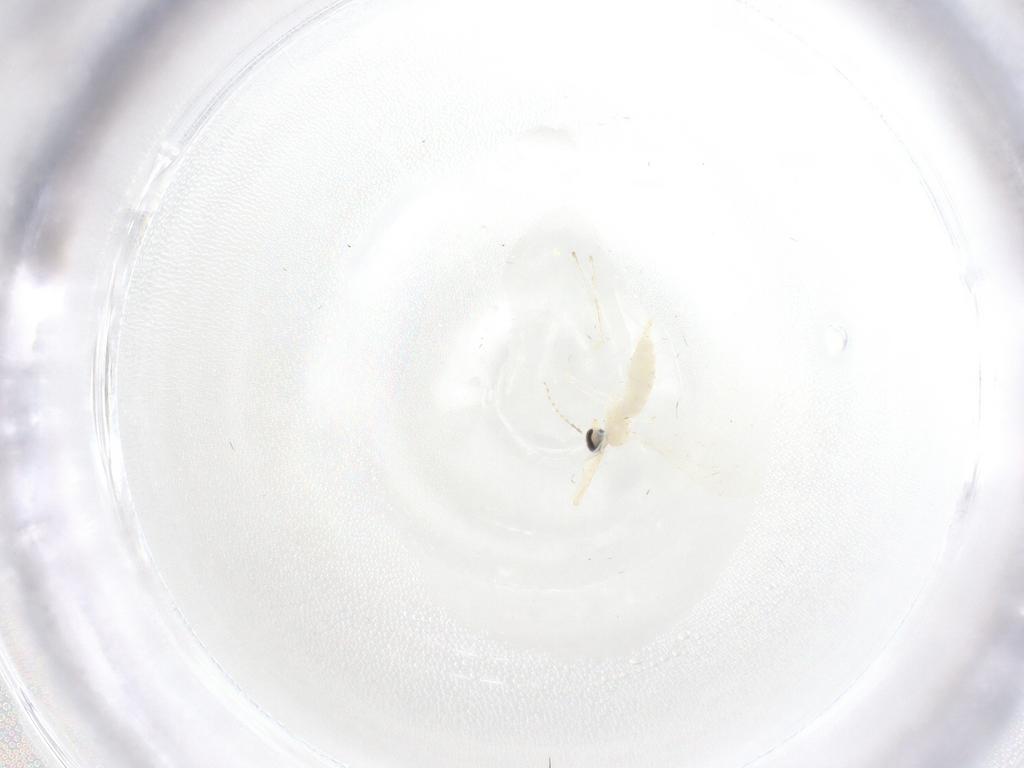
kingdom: Animalia
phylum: Arthropoda
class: Insecta
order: Diptera
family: Cecidomyiidae
